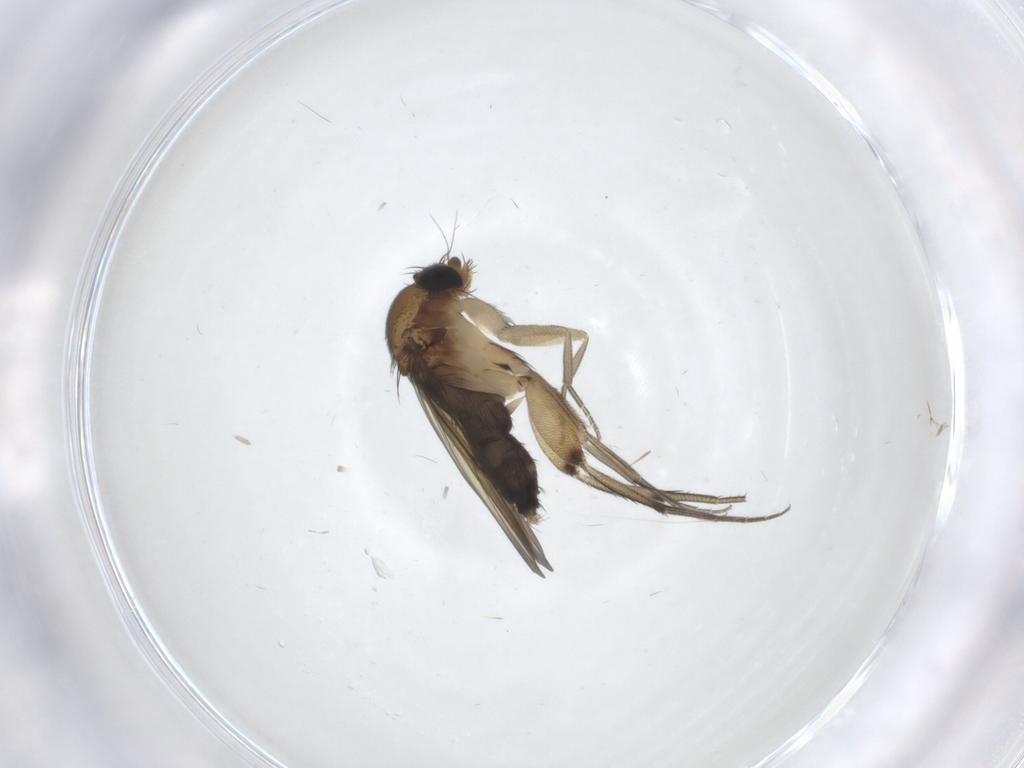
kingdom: Animalia
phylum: Arthropoda
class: Insecta
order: Diptera
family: Phoridae
